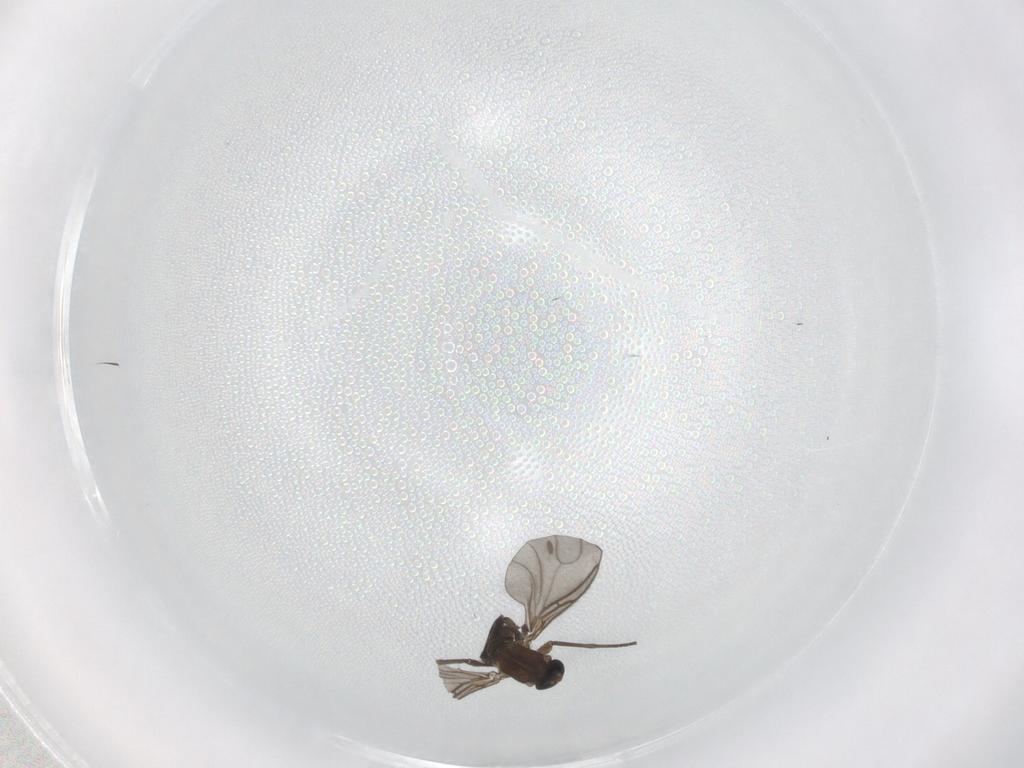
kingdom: Animalia
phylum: Arthropoda
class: Insecta
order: Diptera
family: Sciaridae
